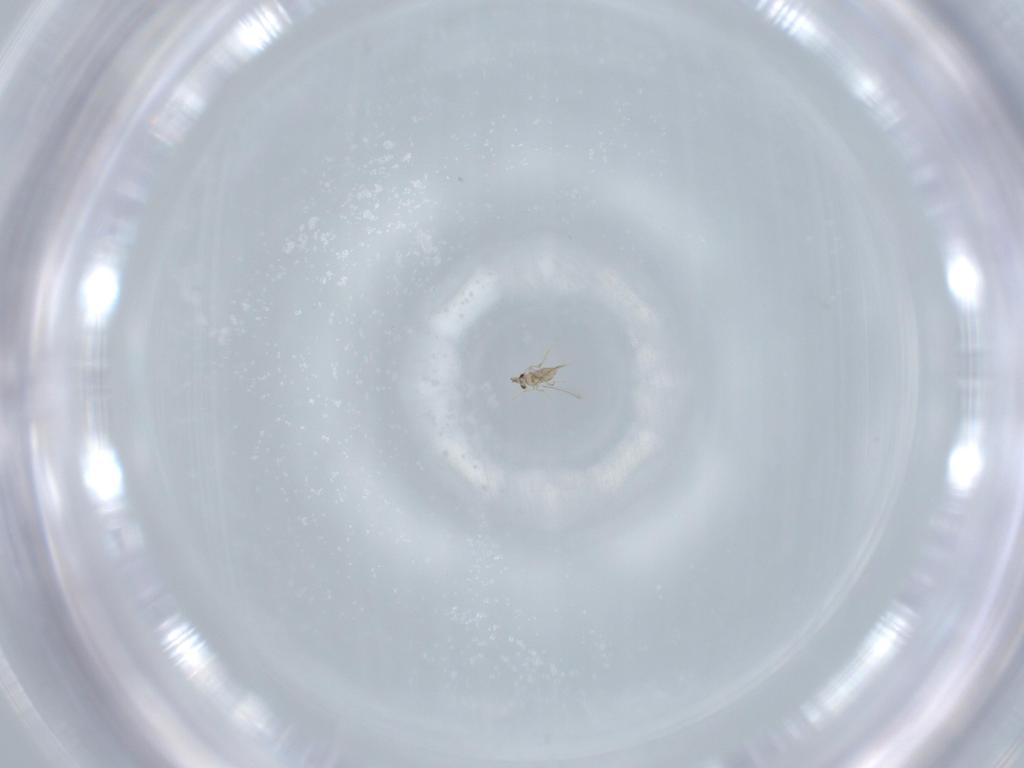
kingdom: Animalia
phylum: Arthropoda
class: Insecta
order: Hymenoptera
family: Mymaridae
